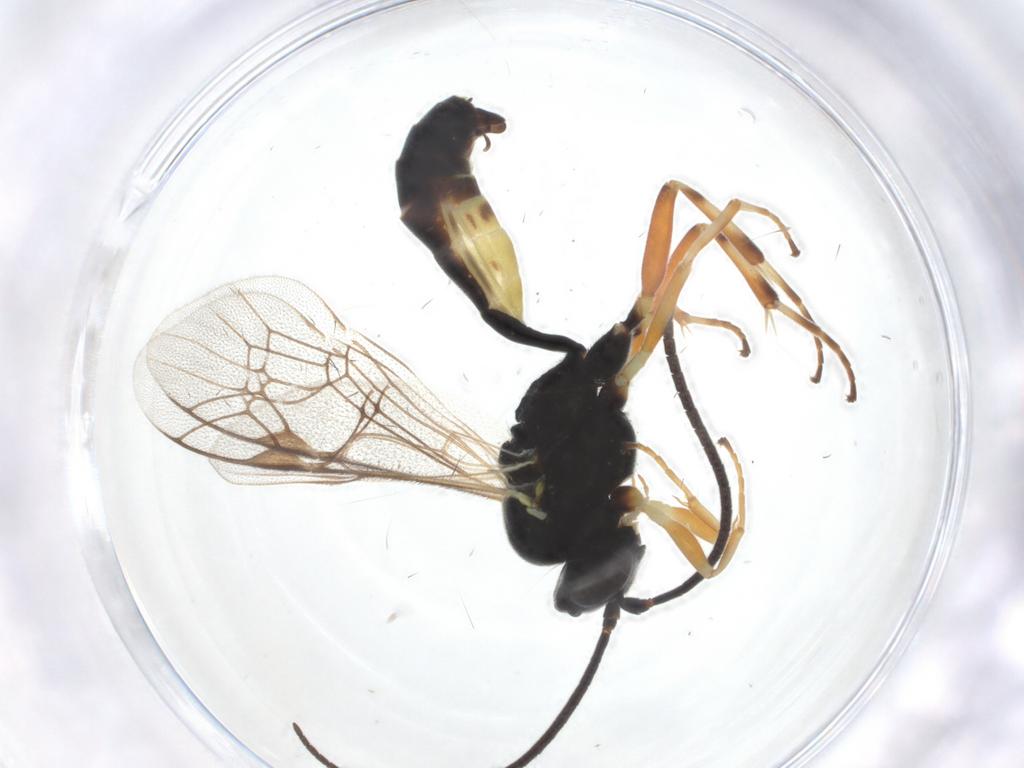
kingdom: Animalia
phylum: Arthropoda
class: Insecta
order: Hymenoptera
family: Ichneumonidae
